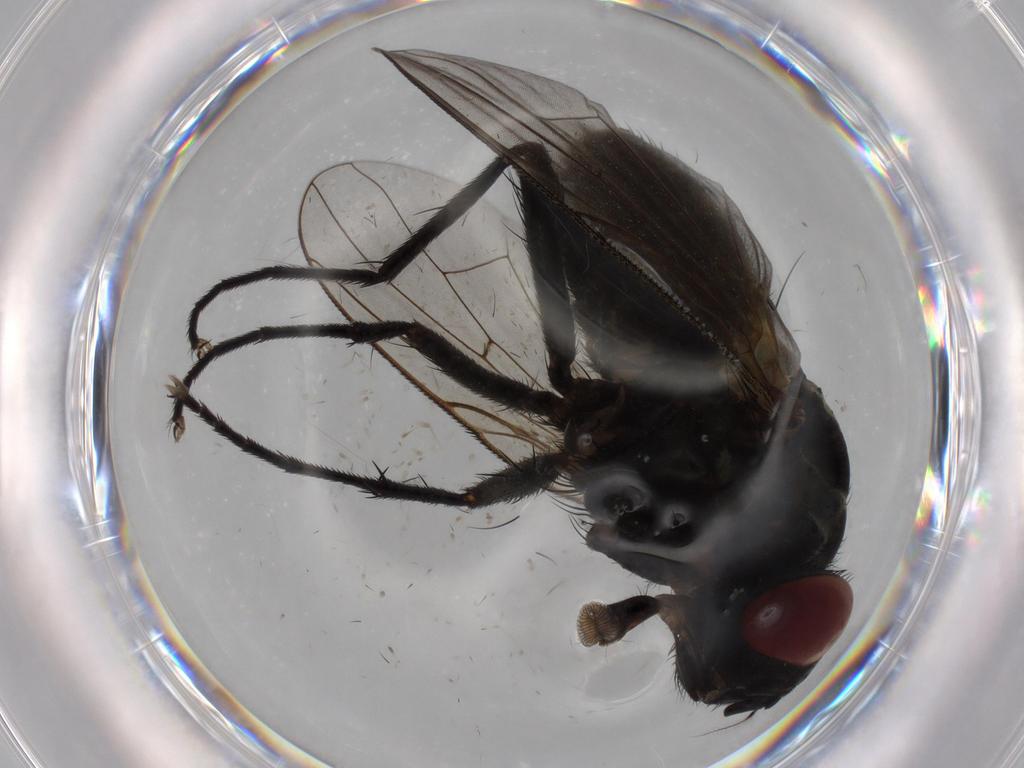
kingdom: Animalia
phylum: Arthropoda
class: Insecta
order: Diptera
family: Muscidae
